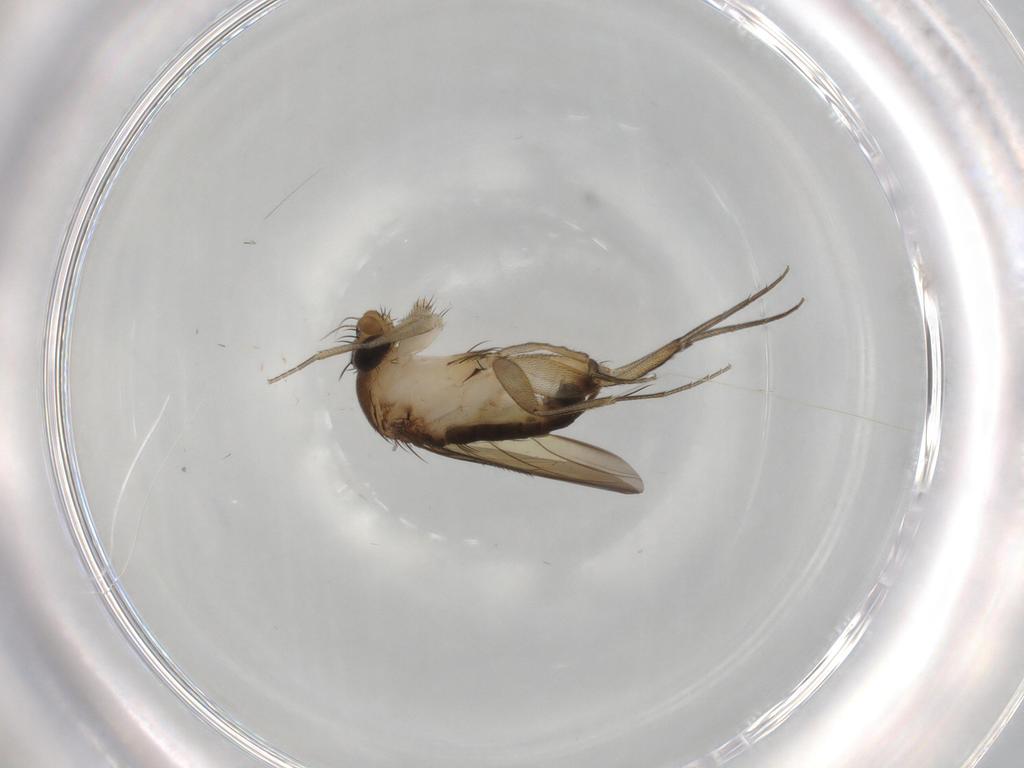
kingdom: Animalia
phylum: Arthropoda
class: Insecta
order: Diptera
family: Phoridae
